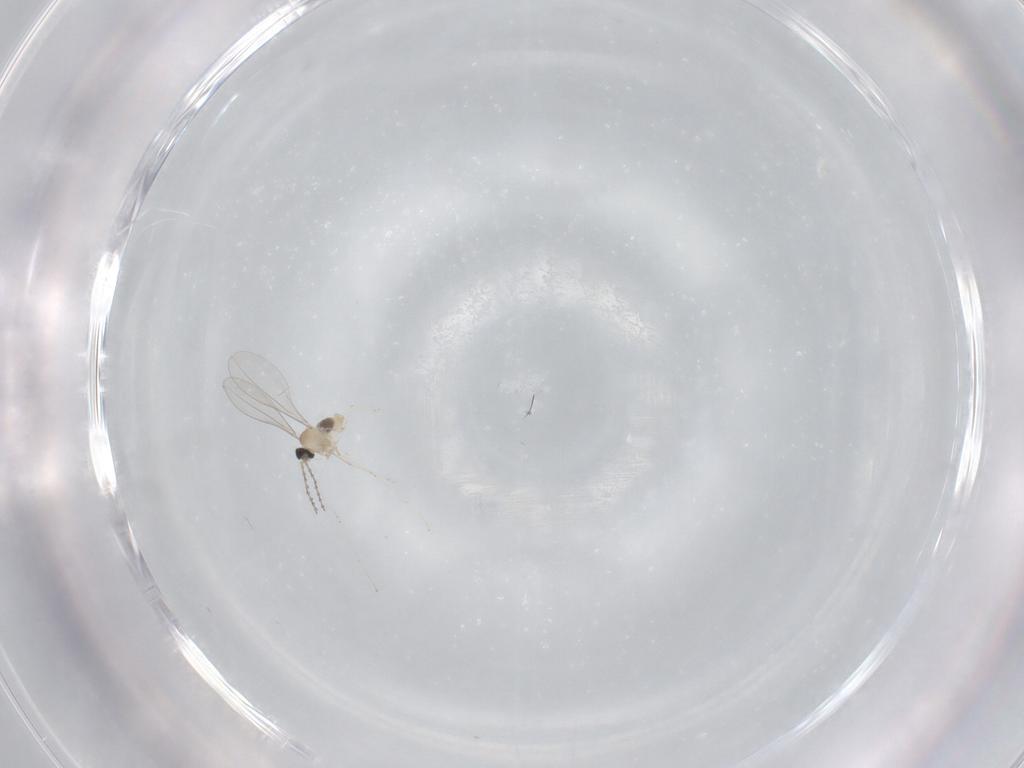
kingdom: Animalia
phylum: Arthropoda
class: Insecta
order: Diptera
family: Cecidomyiidae
